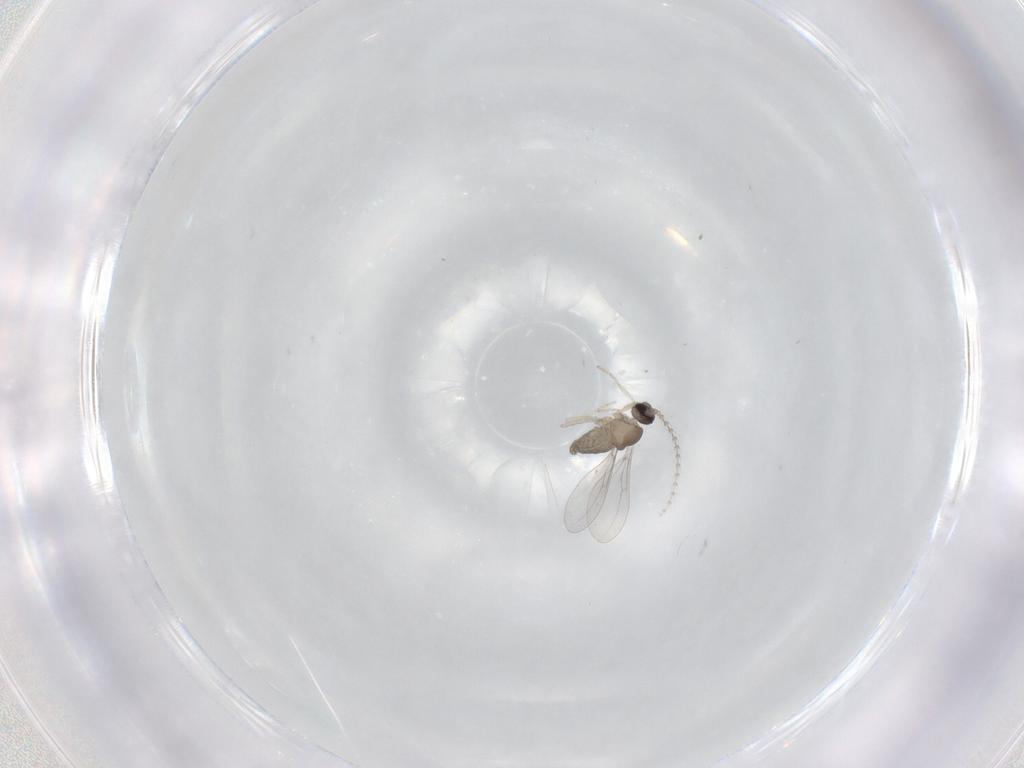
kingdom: Animalia
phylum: Arthropoda
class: Insecta
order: Diptera
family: Cecidomyiidae
